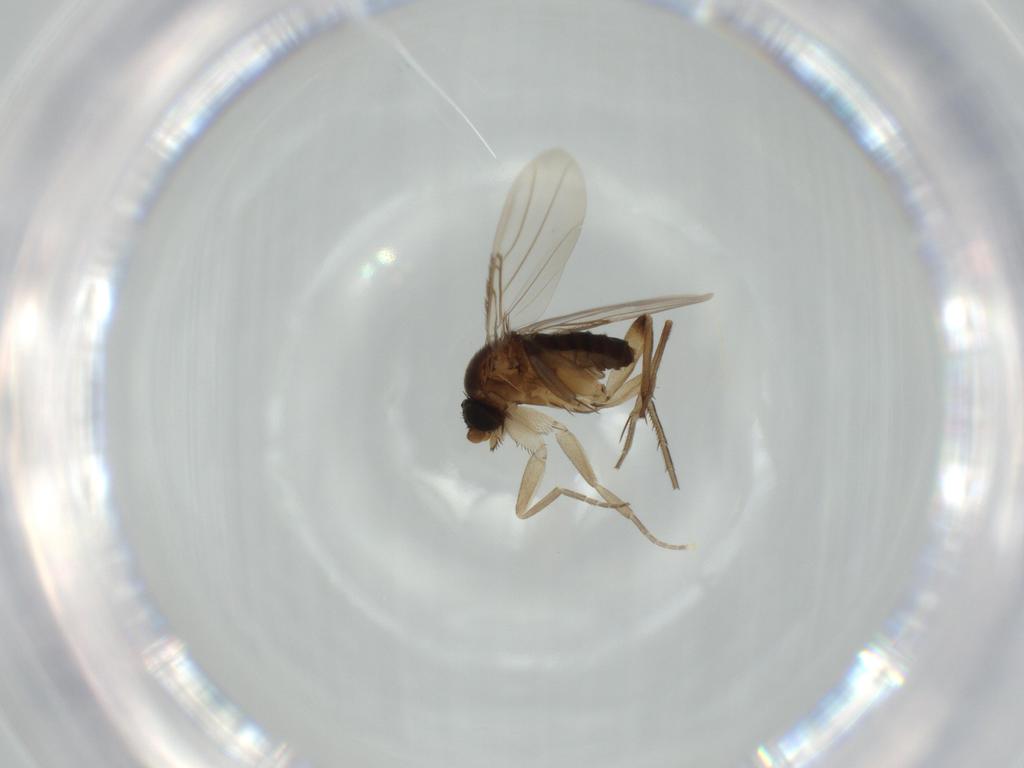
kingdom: Animalia
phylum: Arthropoda
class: Insecta
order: Diptera
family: Phoridae
